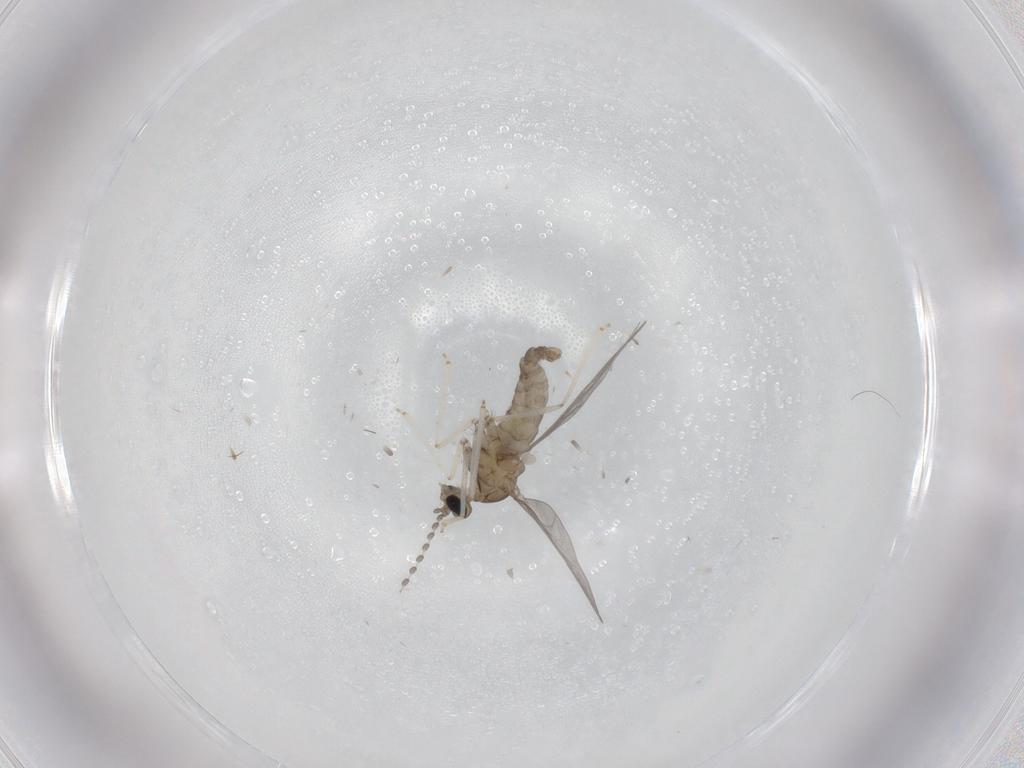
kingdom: Animalia
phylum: Arthropoda
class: Insecta
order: Diptera
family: Cecidomyiidae
